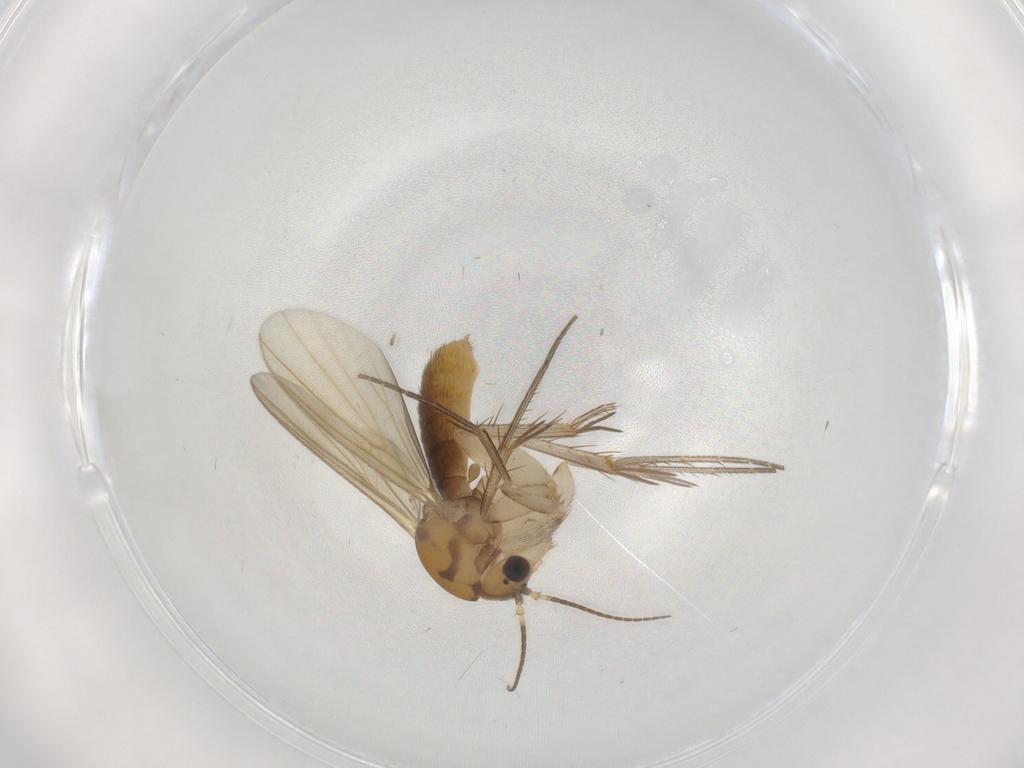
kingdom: Animalia
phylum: Arthropoda
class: Insecta
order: Diptera
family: Mycetophilidae
